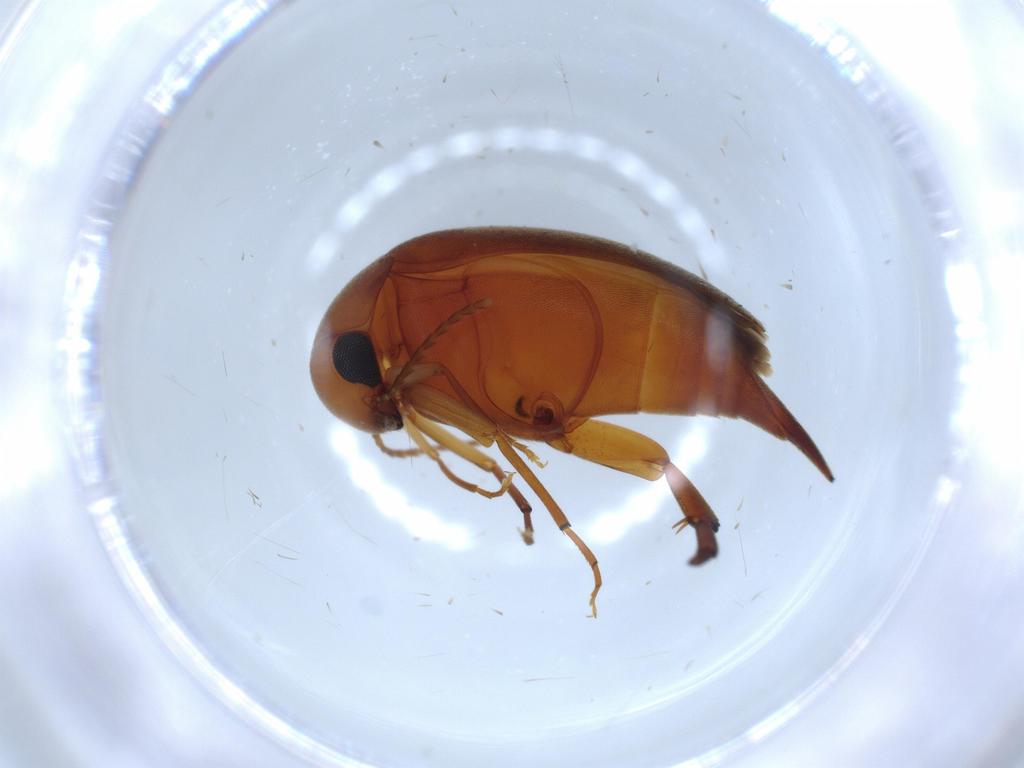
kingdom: Animalia
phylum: Arthropoda
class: Insecta
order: Coleoptera
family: Mordellidae
